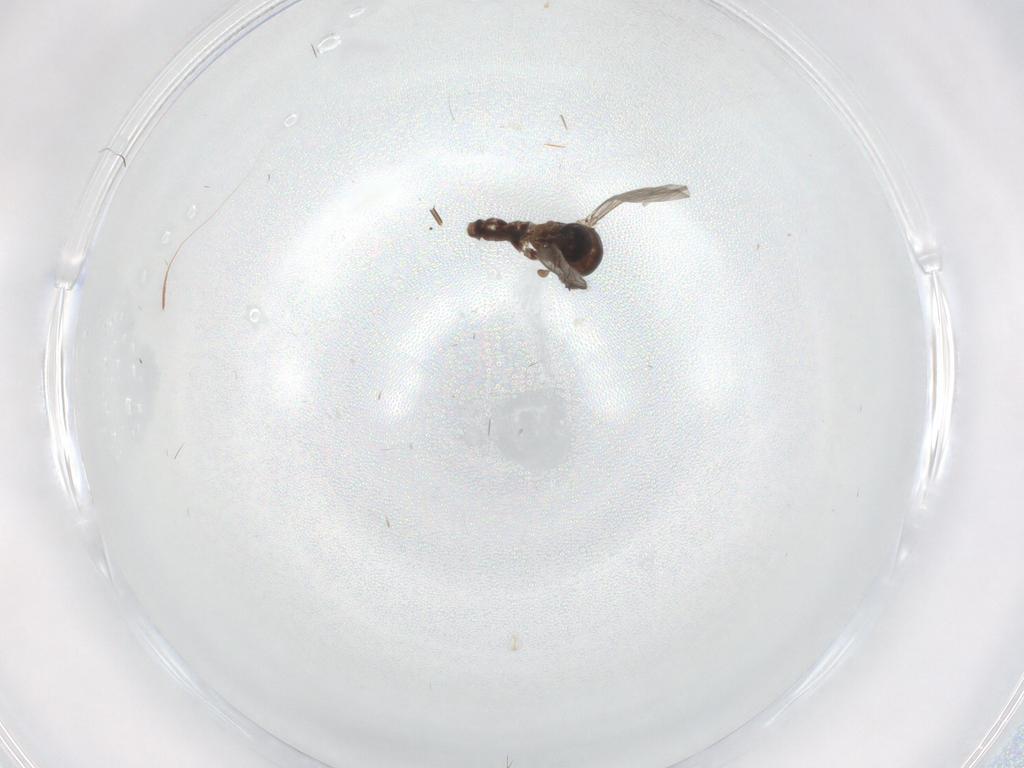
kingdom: Animalia
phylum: Arthropoda
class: Insecta
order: Diptera
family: Ceratopogonidae
